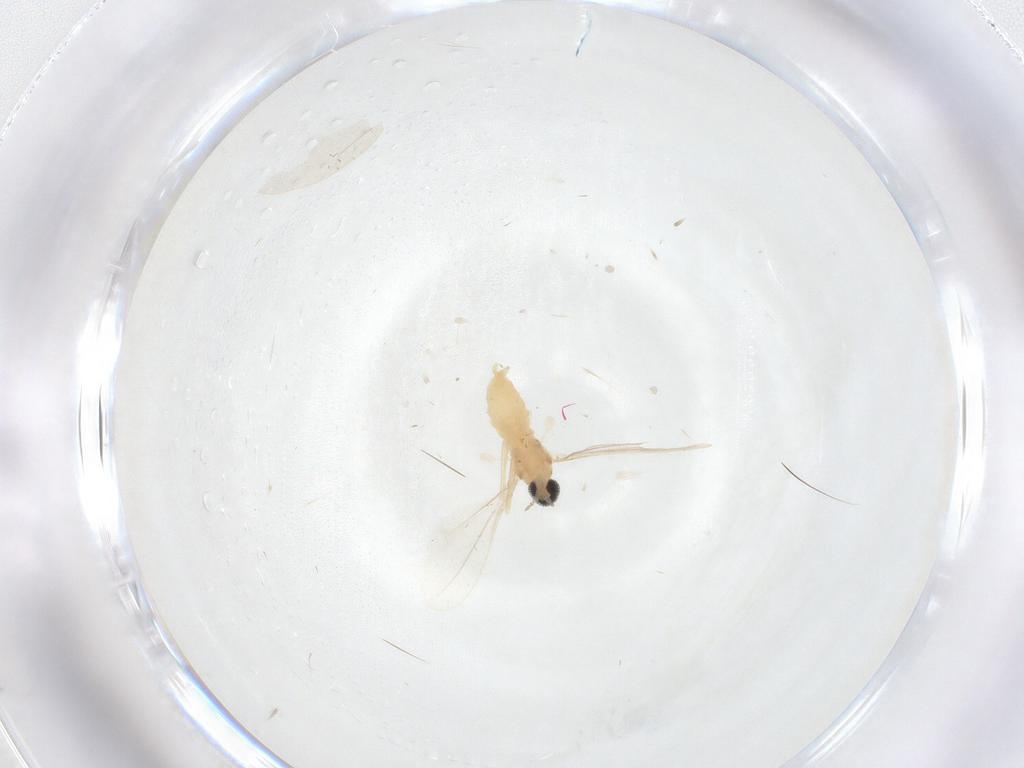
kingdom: Animalia
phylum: Arthropoda
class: Insecta
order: Diptera
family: Cecidomyiidae
